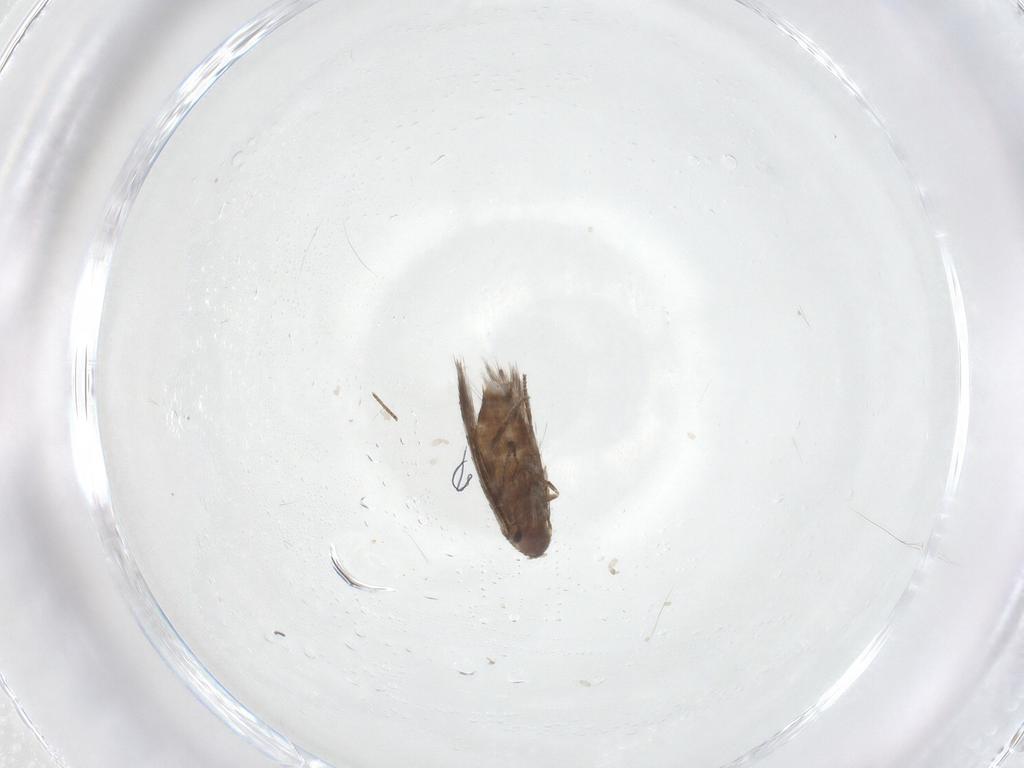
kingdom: Animalia
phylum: Arthropoda
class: Insecta
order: Lepidoptera
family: Lyonetiidae
